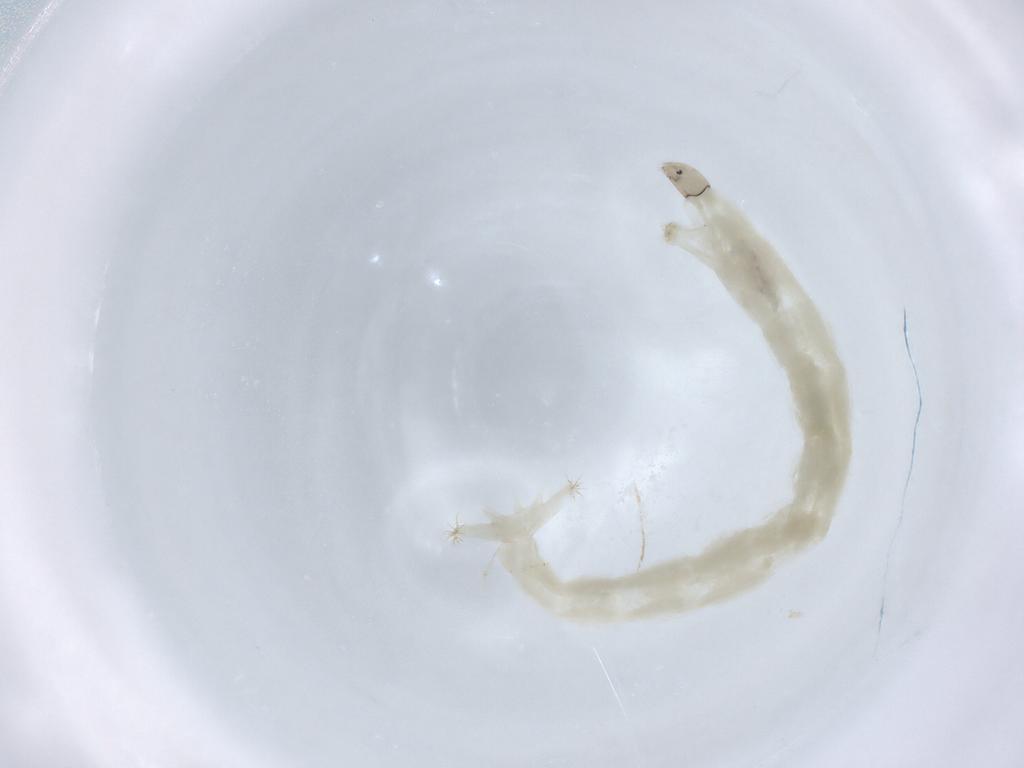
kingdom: Animalia
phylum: Arthropoda
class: Insecta
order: Diptera
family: Chironomidae
